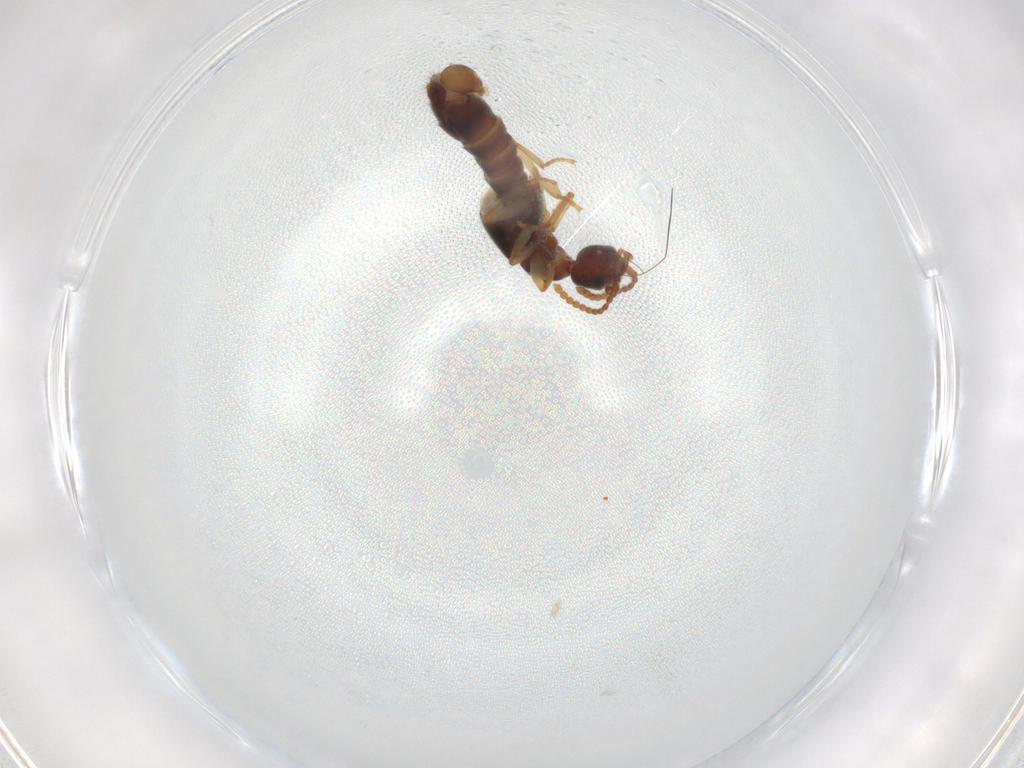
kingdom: Animalia
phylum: Arthropoda
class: Insecta
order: Coleoptera
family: Staphylinidae
